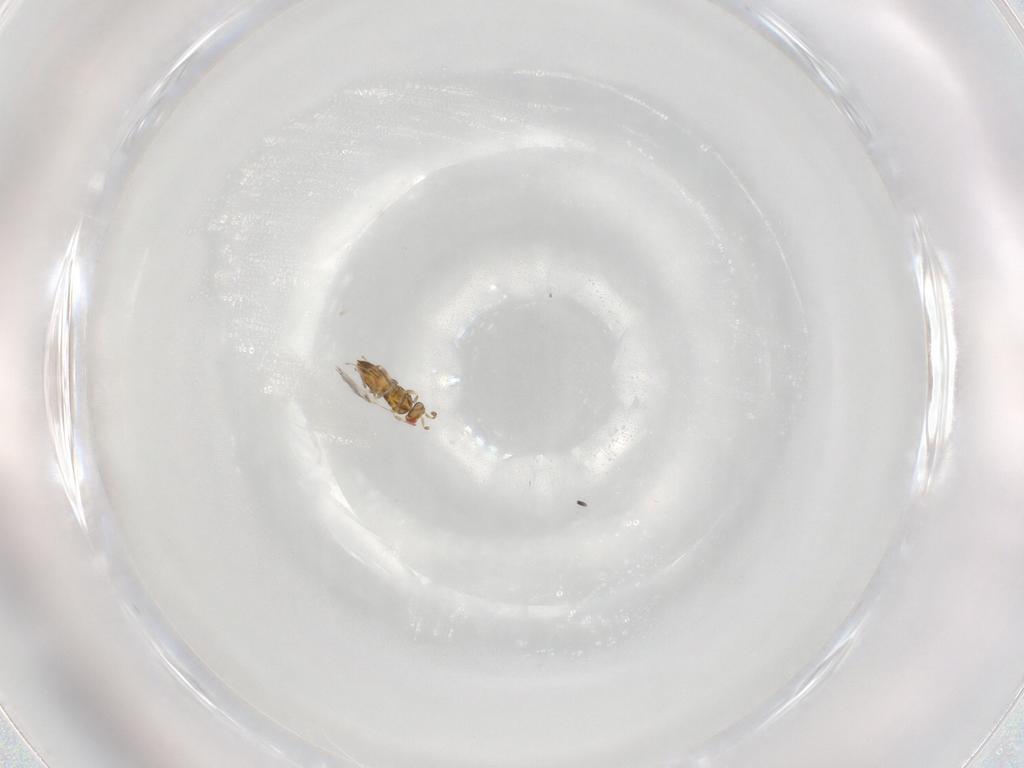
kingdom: Animalia
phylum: Arthropoda
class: Insecta
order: Hymenoptera
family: Trichogrammatidae
